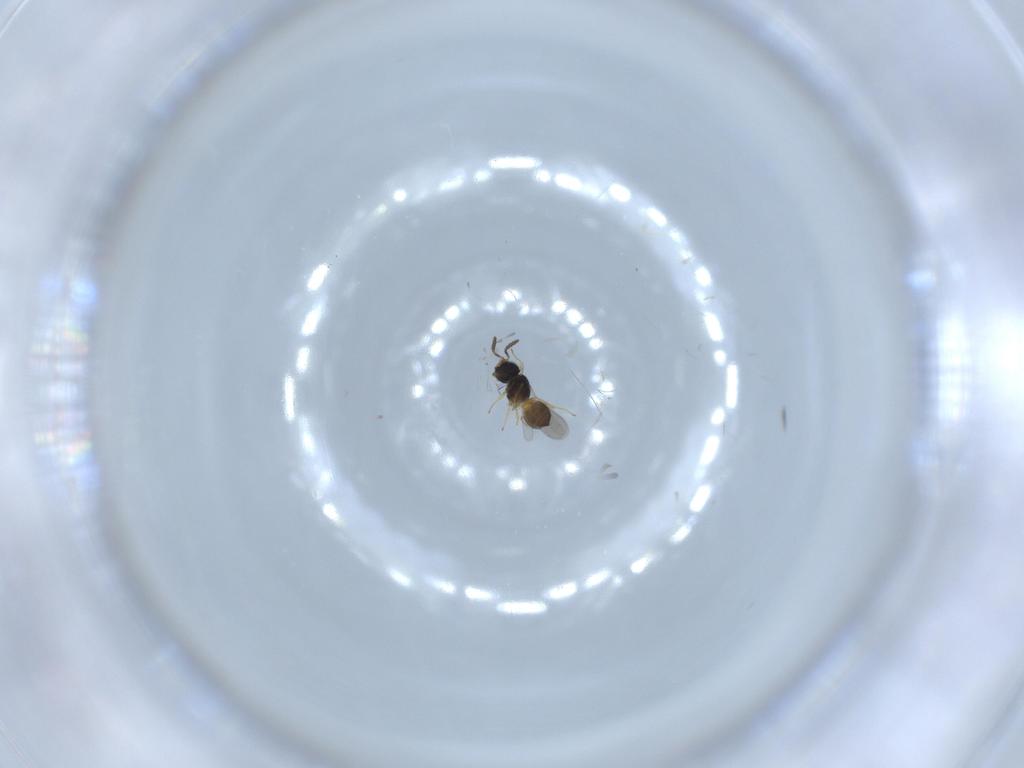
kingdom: Animalia
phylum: Arthropoda
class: Insecta
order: Hymenoptera
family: Scelionidae
